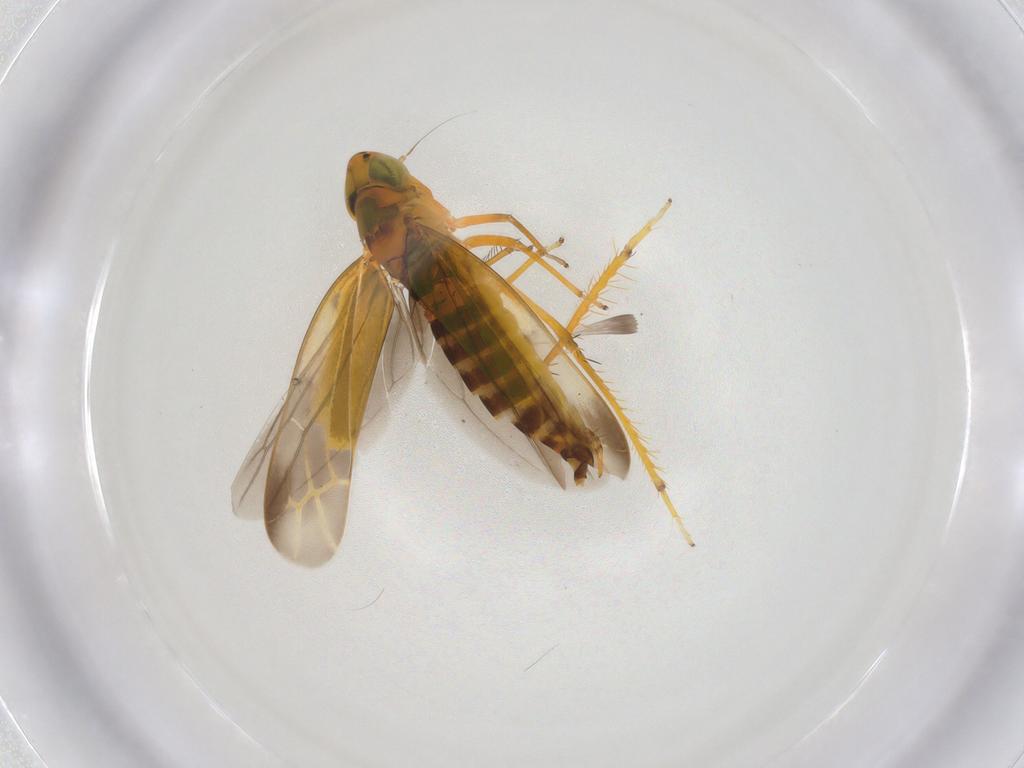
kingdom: Animalia
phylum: Arthropoda
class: Insecta
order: Hemiptera
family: Cicadellidae
